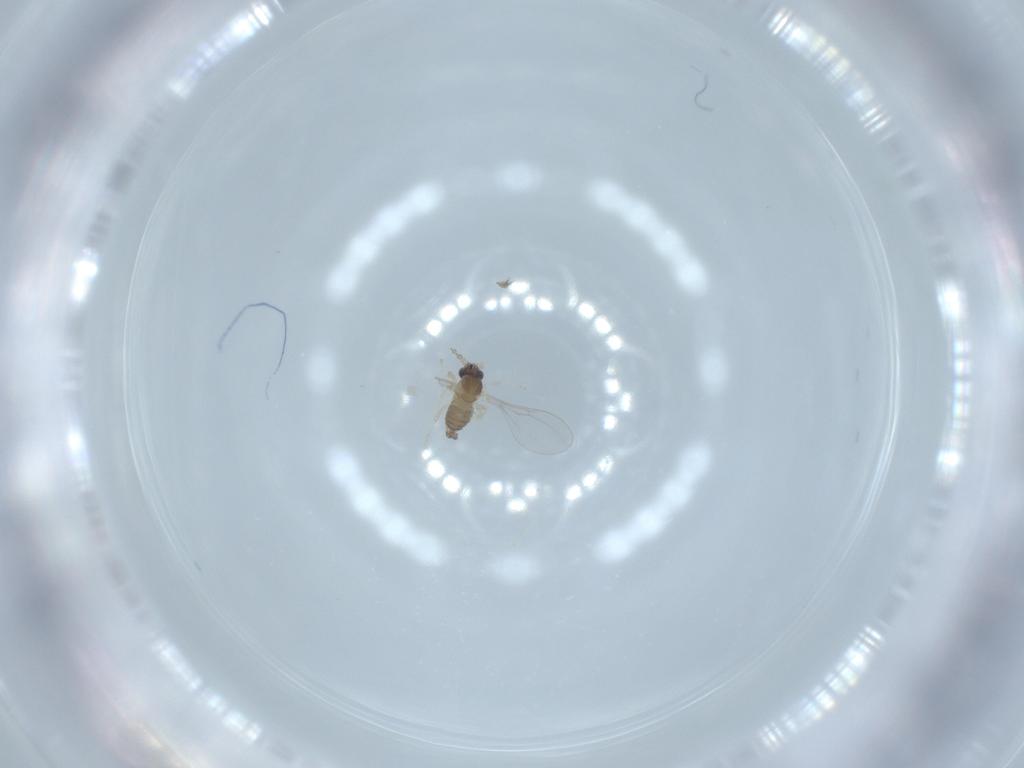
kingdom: Animalia
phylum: Arthropoda
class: Insecta
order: Diptera
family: Cecidomyiidae
